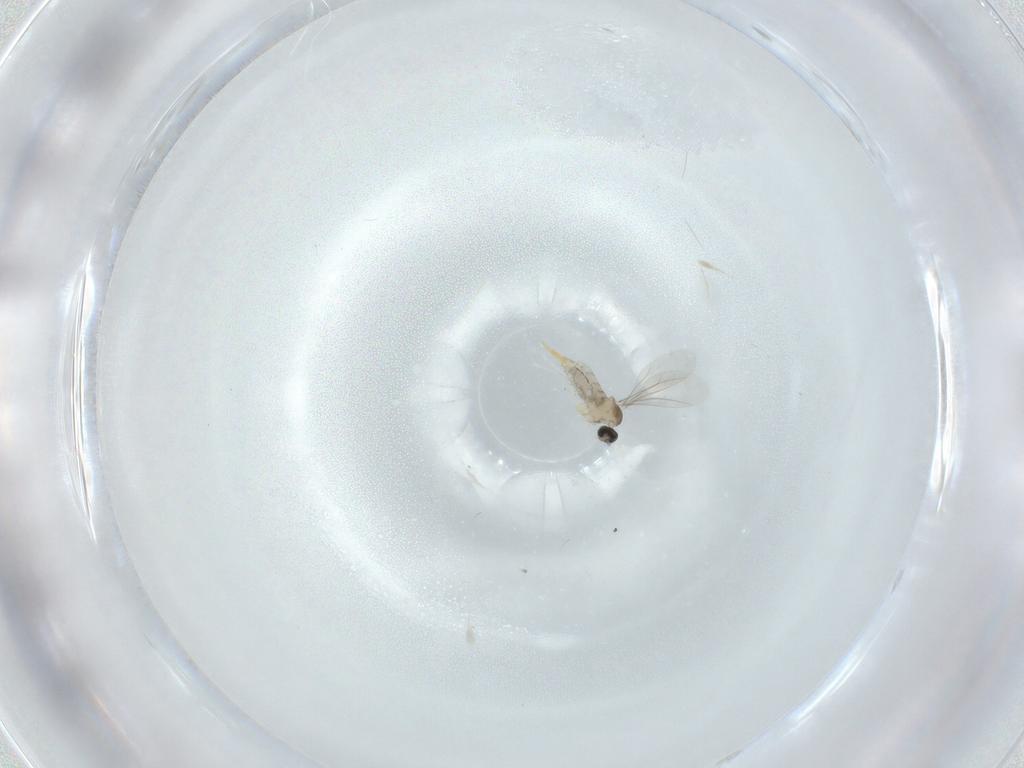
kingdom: Animalia
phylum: Arthropoda
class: Insecta
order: Diptera
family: Cecidomyiidae
